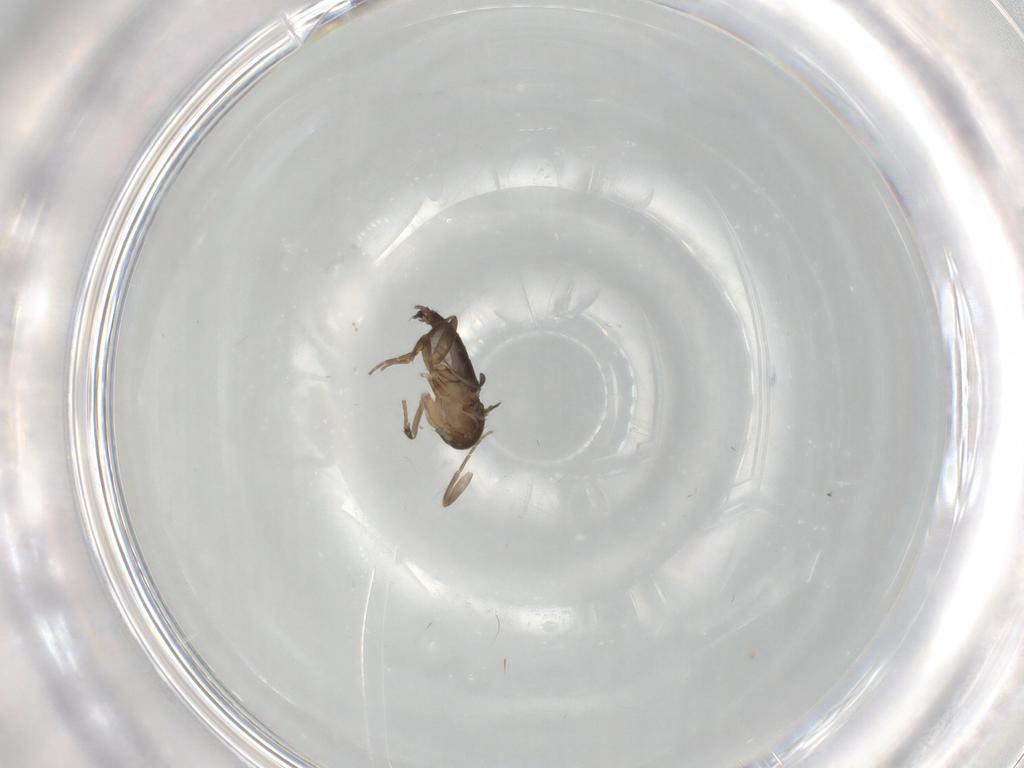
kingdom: Animalia
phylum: Arthropoda
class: Insecta
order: Diptera
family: Phoridae
